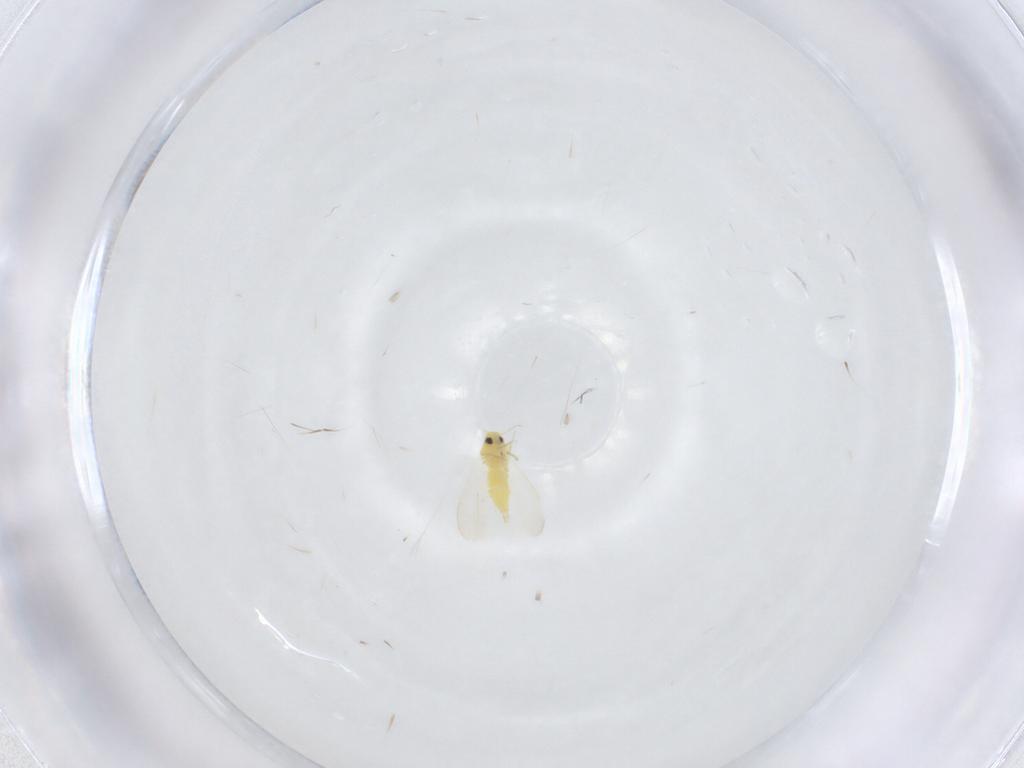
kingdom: Animalia
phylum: Arthropoda
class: Insecta
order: Hemiptera
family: Aleyrodidae
